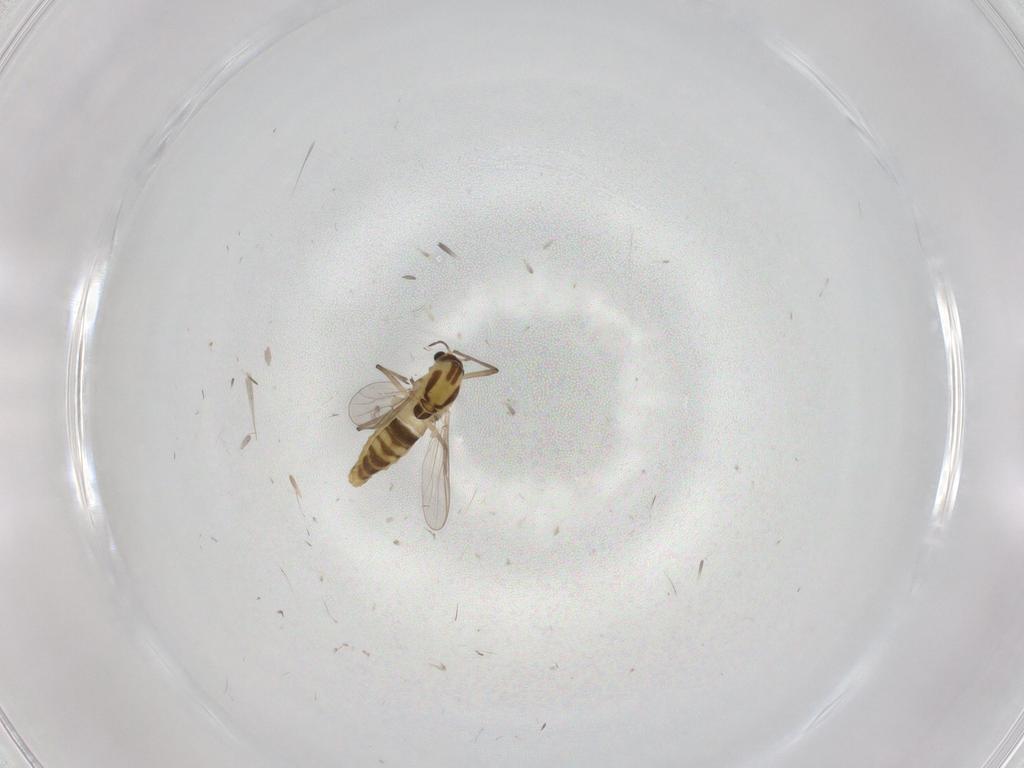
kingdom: Animalia
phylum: Arthropoda
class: Insecta
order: Diptera
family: Chironomidae
